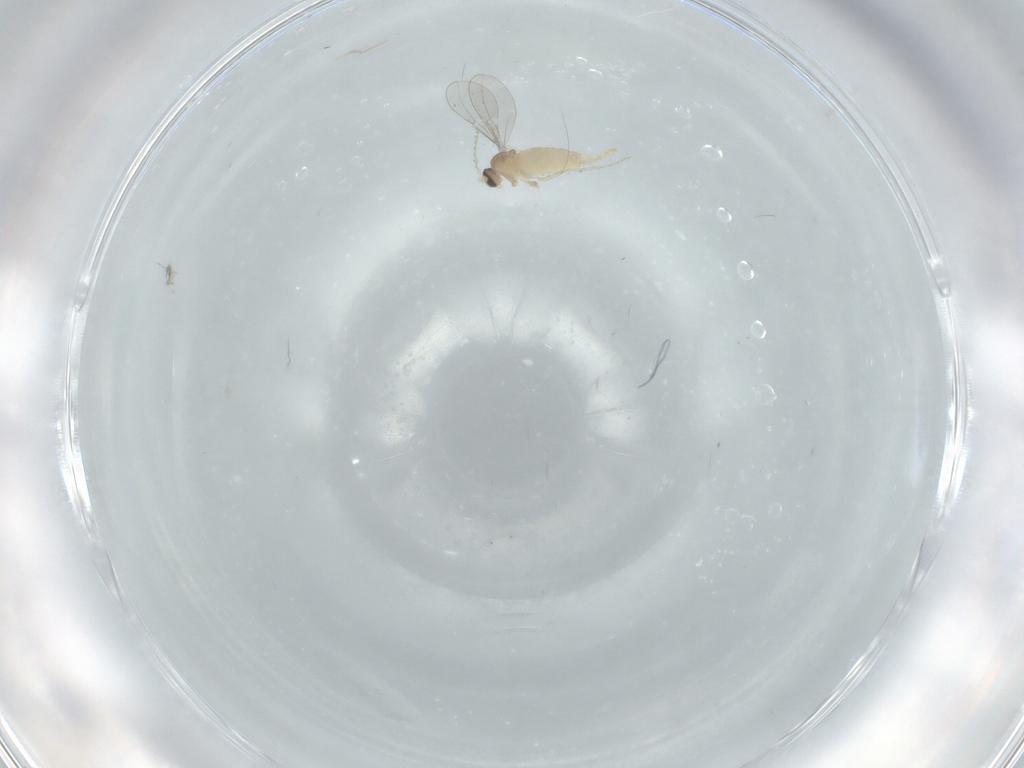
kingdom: Animalia
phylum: Arthropoda
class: Insecta
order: Diptera
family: Cecidomyiidae
